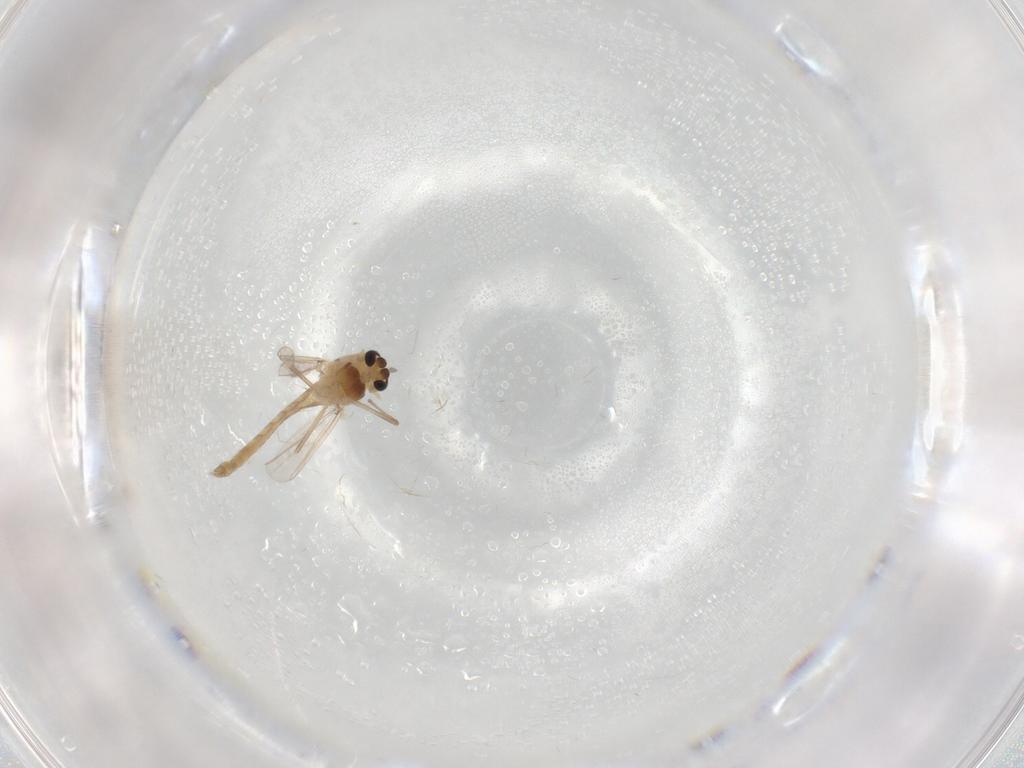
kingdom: Animalia
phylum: Arthropoda
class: Insecta
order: Diptera
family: Chironomidae
